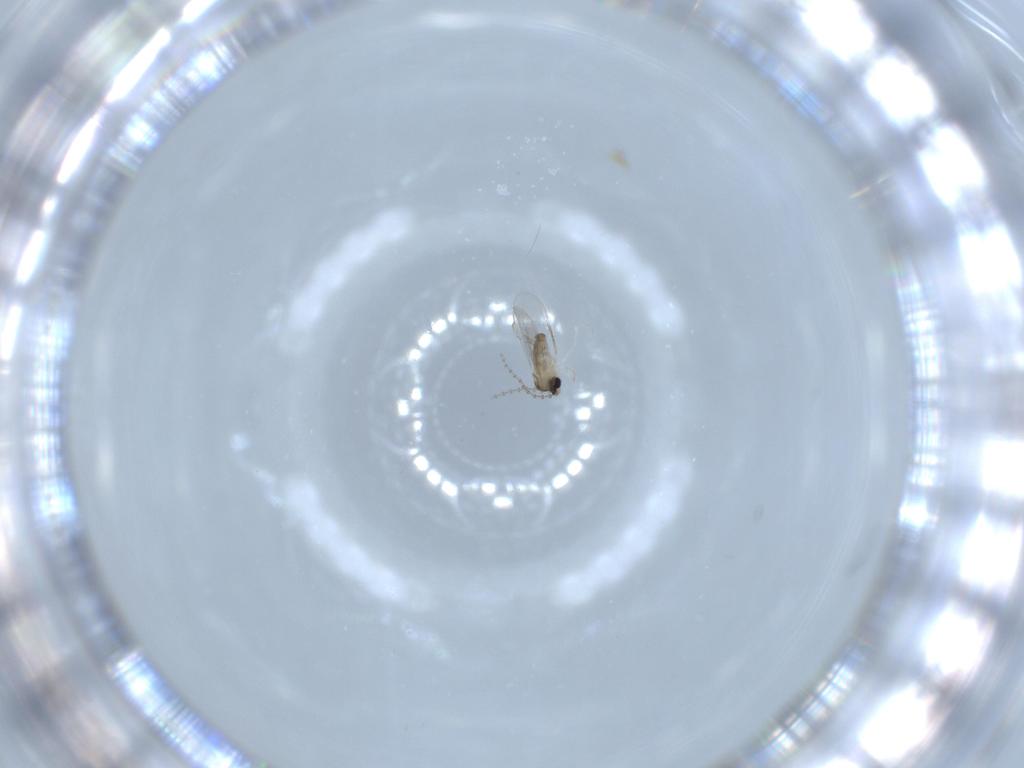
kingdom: Animalia
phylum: Arthropoda
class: Insecta
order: Diptera
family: Cecidomyiidae
